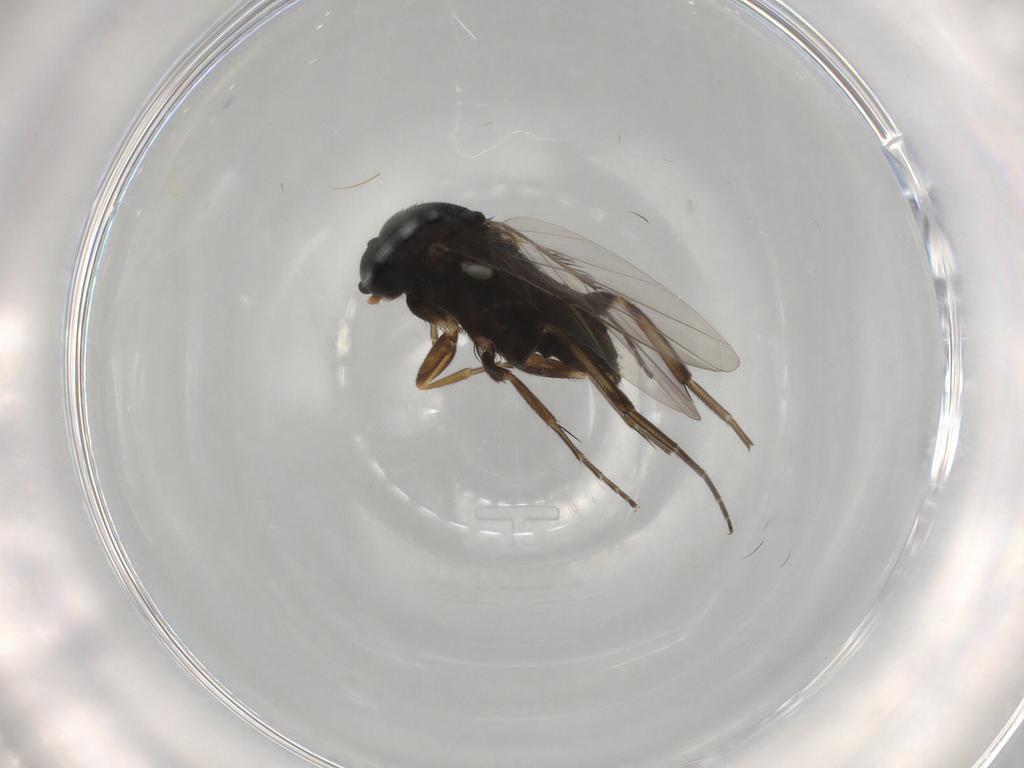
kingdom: Animalia
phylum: Arthropoda
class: Insecta
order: Diptera
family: Phoridae
